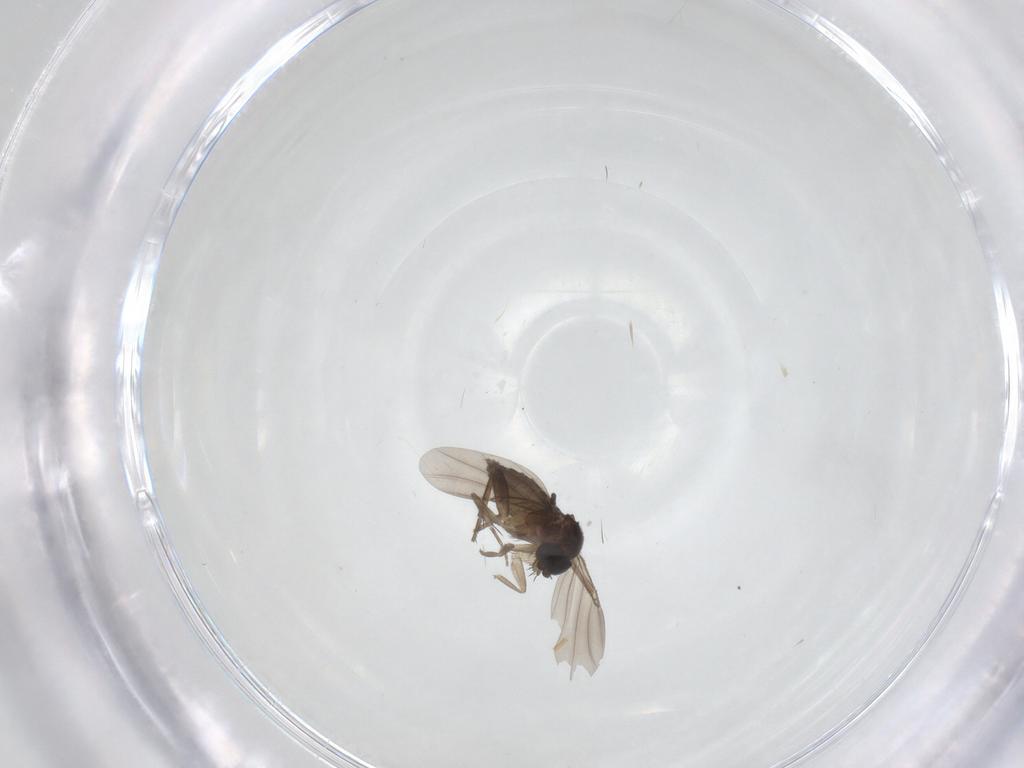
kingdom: Animalia
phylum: Arthropoda
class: Insecta
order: Diptera
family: Phoridae
